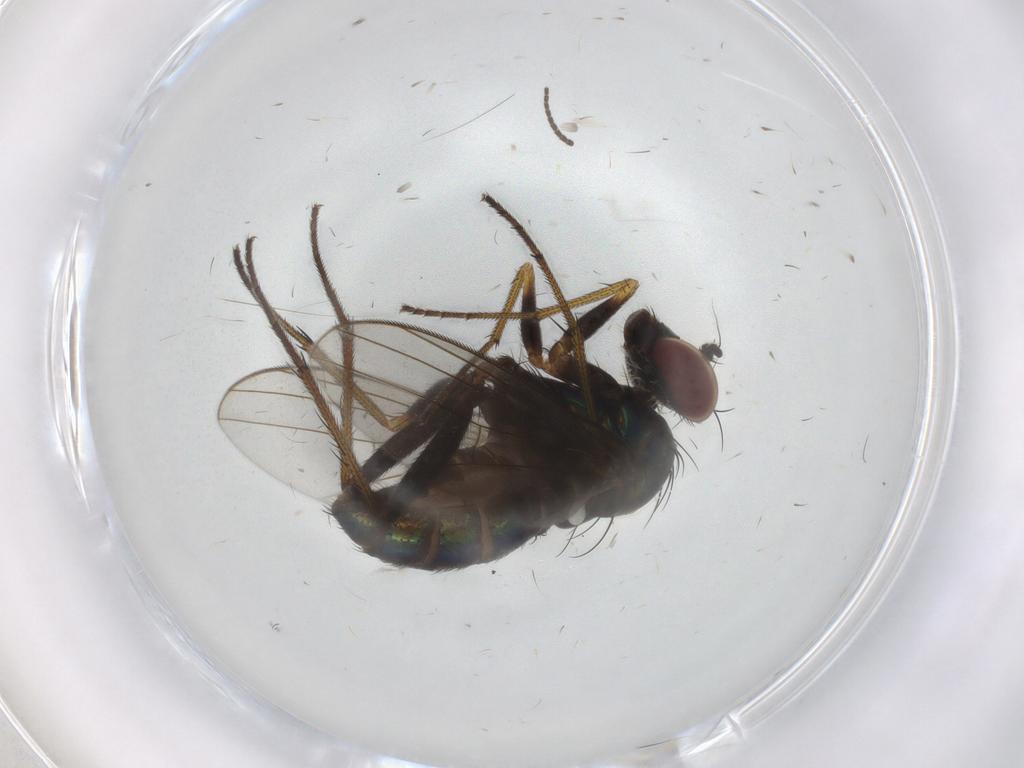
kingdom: Animalia
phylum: Arthropoda
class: Insecta
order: Diptera
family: Dolichopodidae
